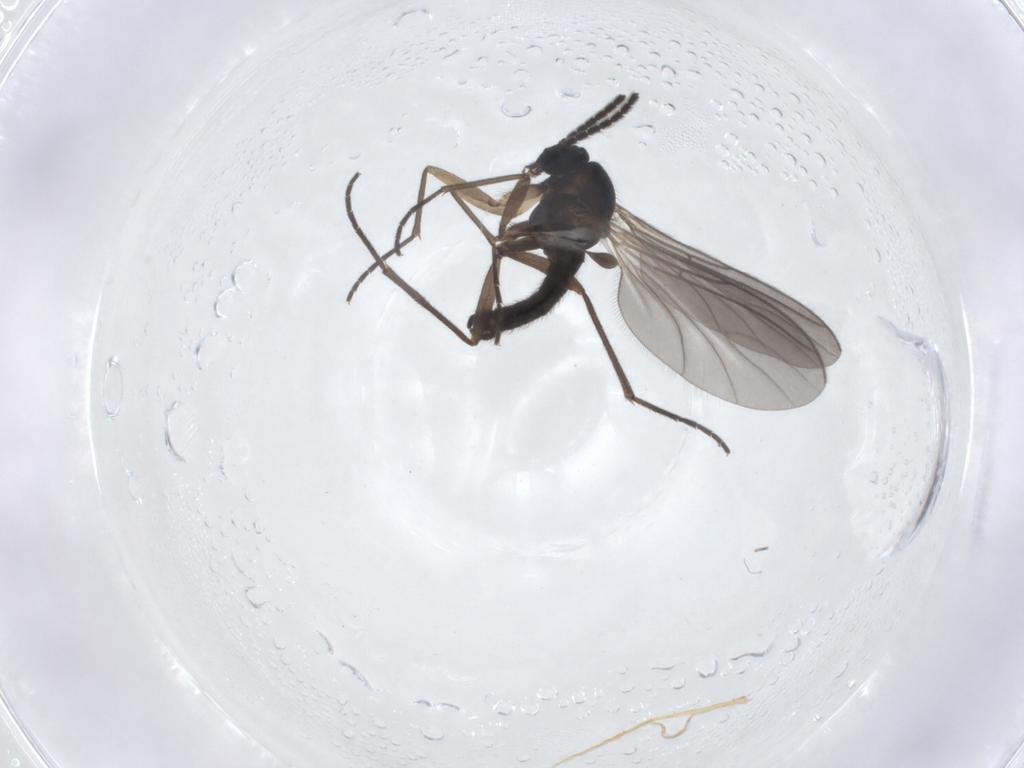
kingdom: Animalia
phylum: Arthropoda
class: Insecta
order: Diptera
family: Sciaridae
